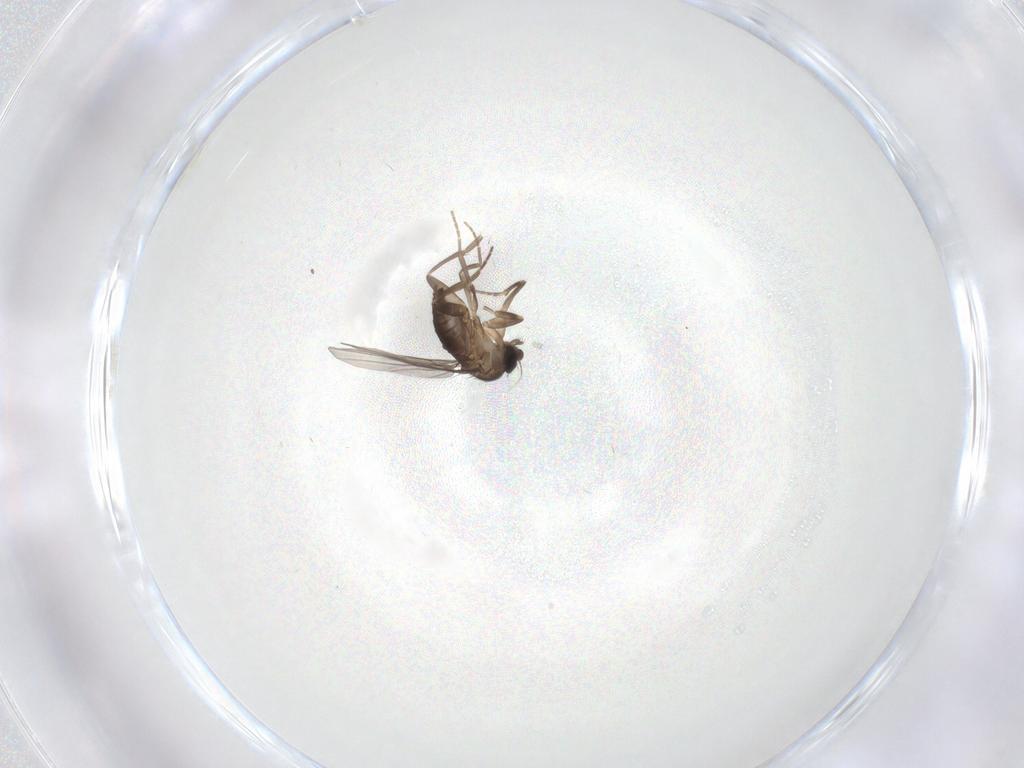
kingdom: Animalia
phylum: Arthropoda
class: Insecta
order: Diptera
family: Phoridae
